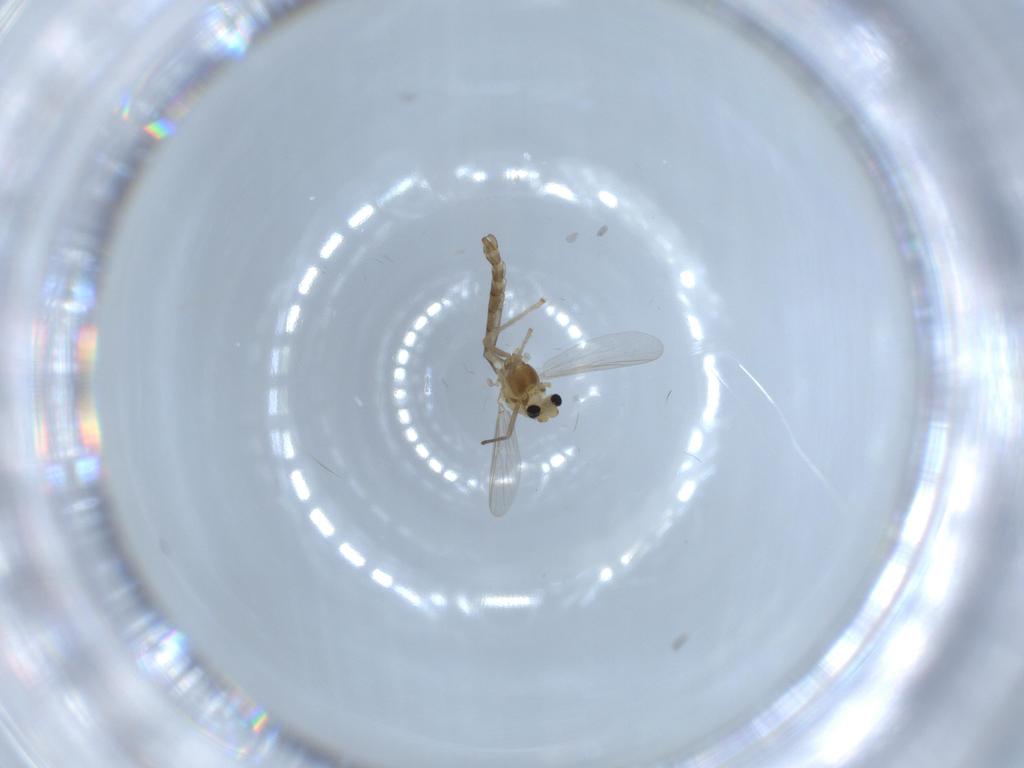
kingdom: Animalia
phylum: Arthropoda
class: Insecta
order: Diptera
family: Chironomidae
